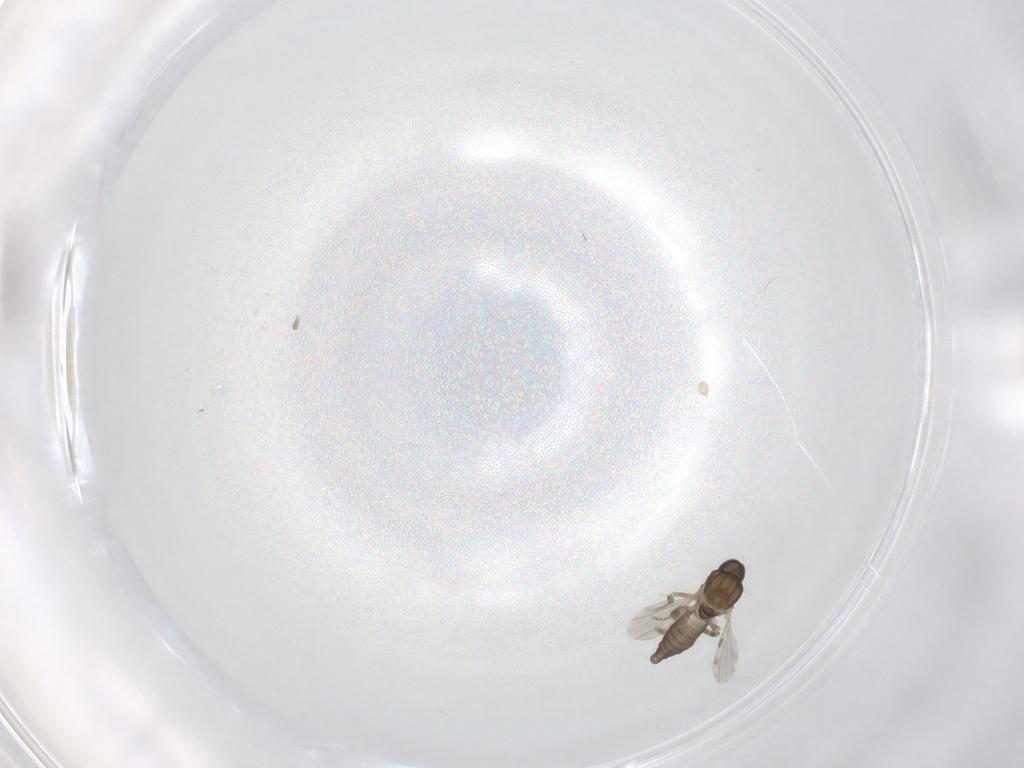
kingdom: Animalia
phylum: Arthropoda
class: Insecta
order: Diptera
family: Ceratopogonidae
